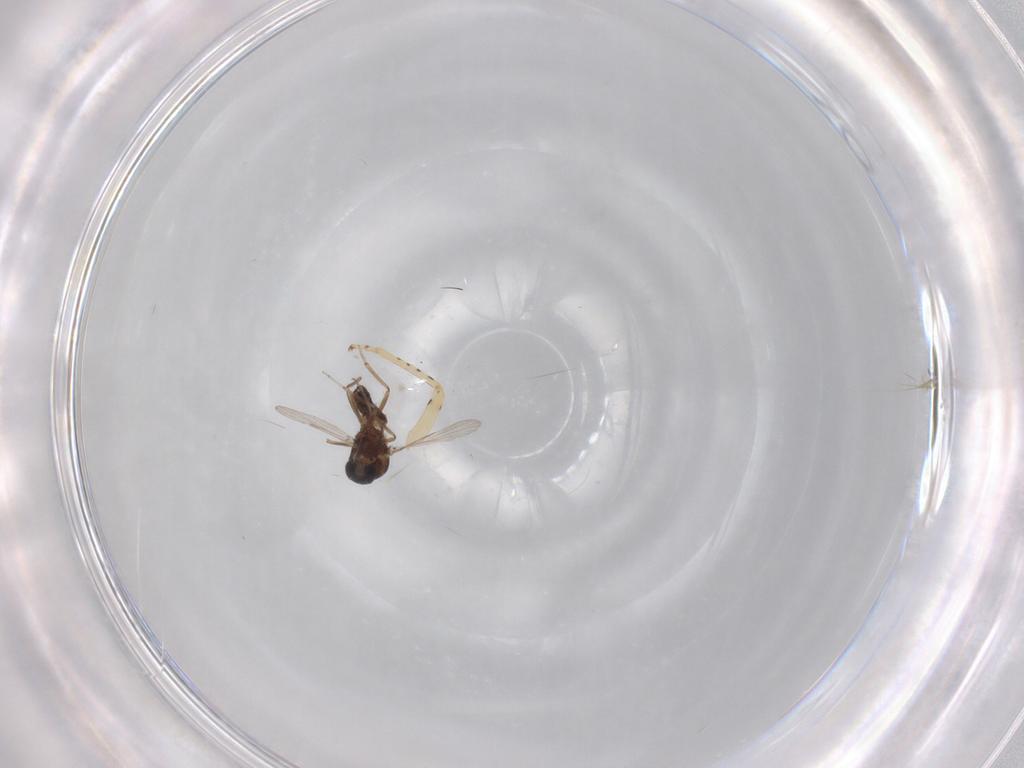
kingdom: Animalia
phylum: Arthropoda
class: Insecta
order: Diptera
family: Ceratopogonidae
